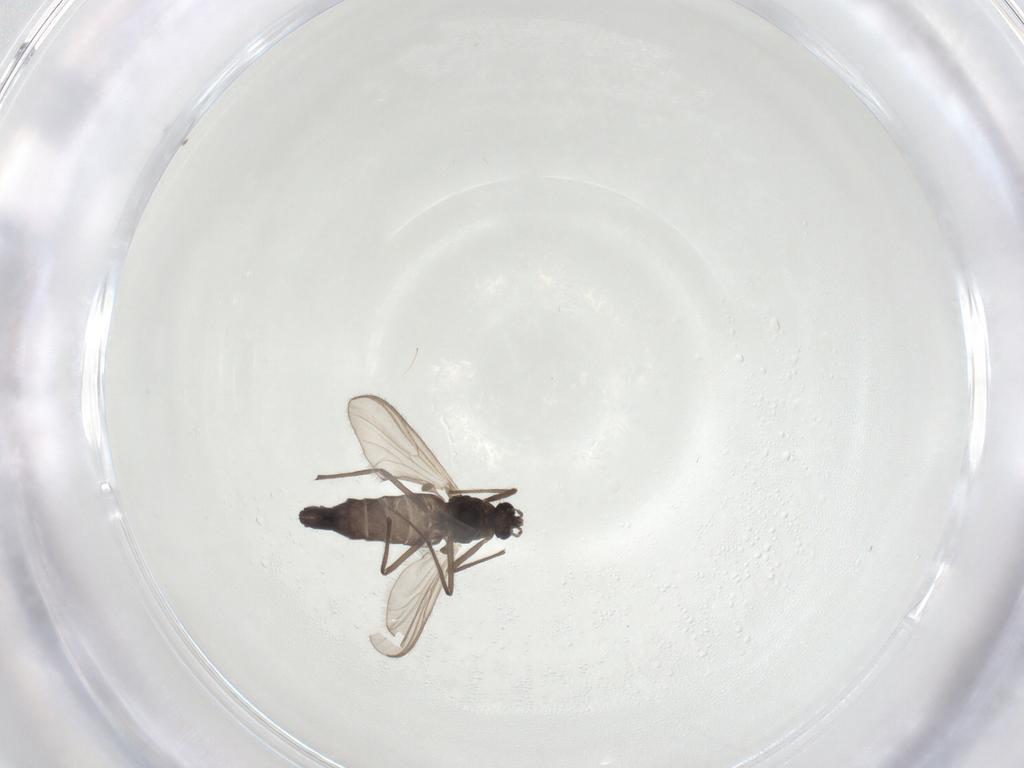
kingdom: Animalia
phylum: Arthropoda
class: Insecta
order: Diptera
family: Chironomidae
